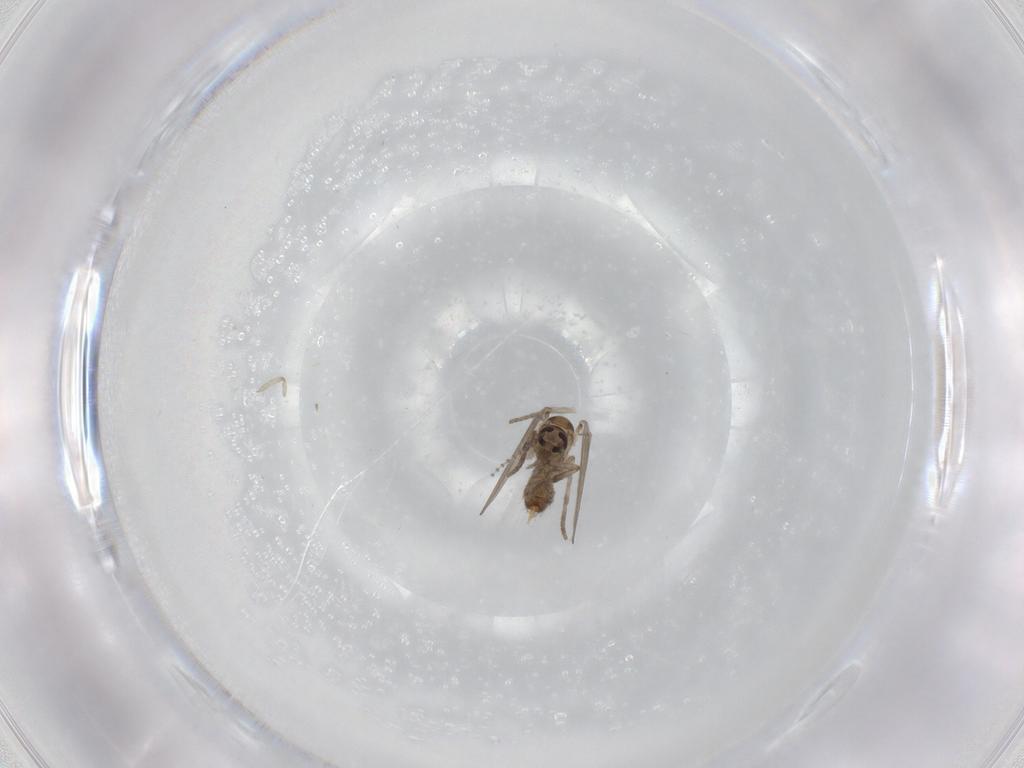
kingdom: Animalia
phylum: Arthropoda
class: Insecta
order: Diptera
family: Psychodidae
